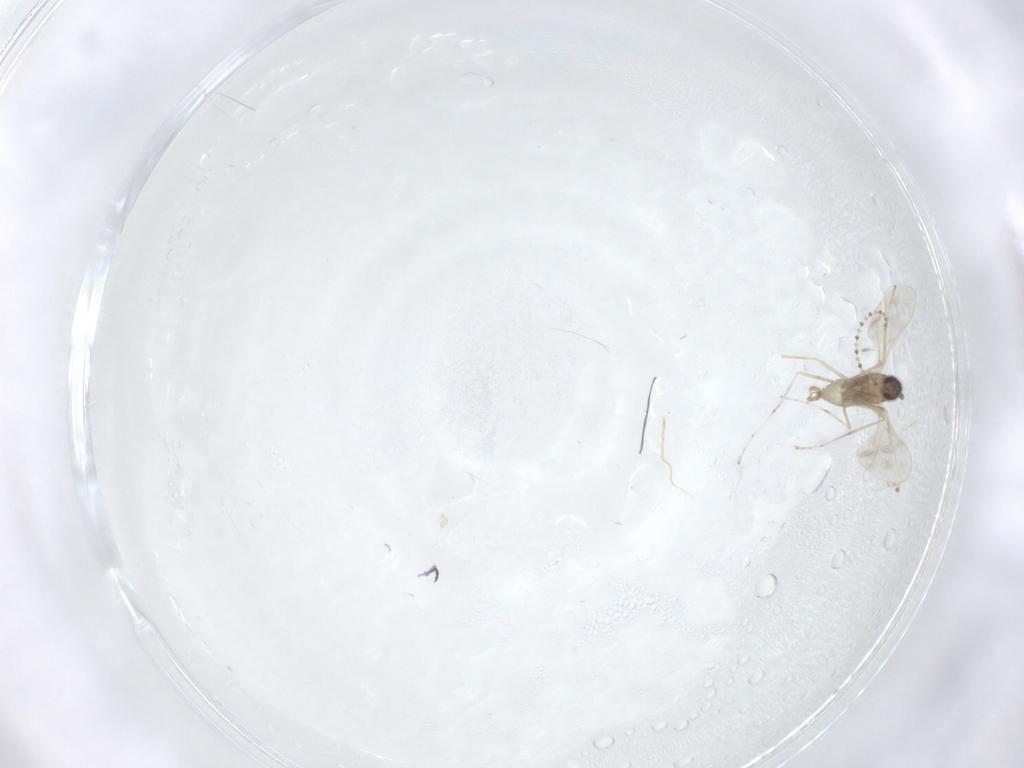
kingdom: Animalia
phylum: Arthropoda
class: Insecta
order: Diptera
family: Cecidomyiidae
